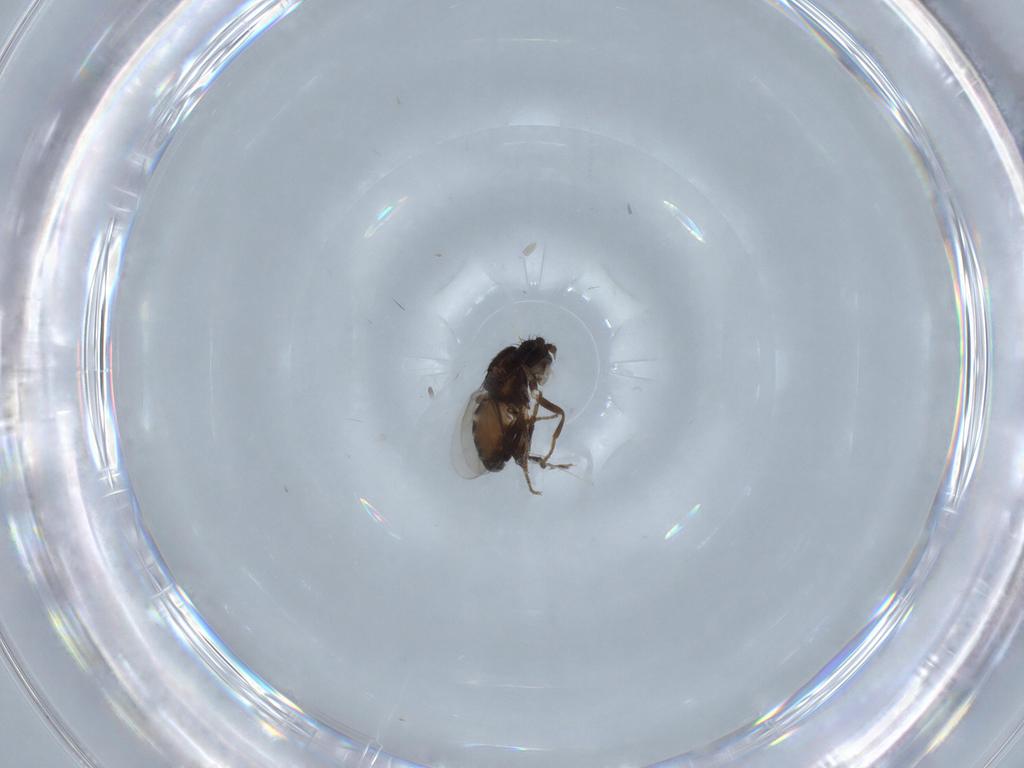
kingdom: Animalia
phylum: Arthropoda
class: Insecta
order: Diptera
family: Sphaeroceridae
